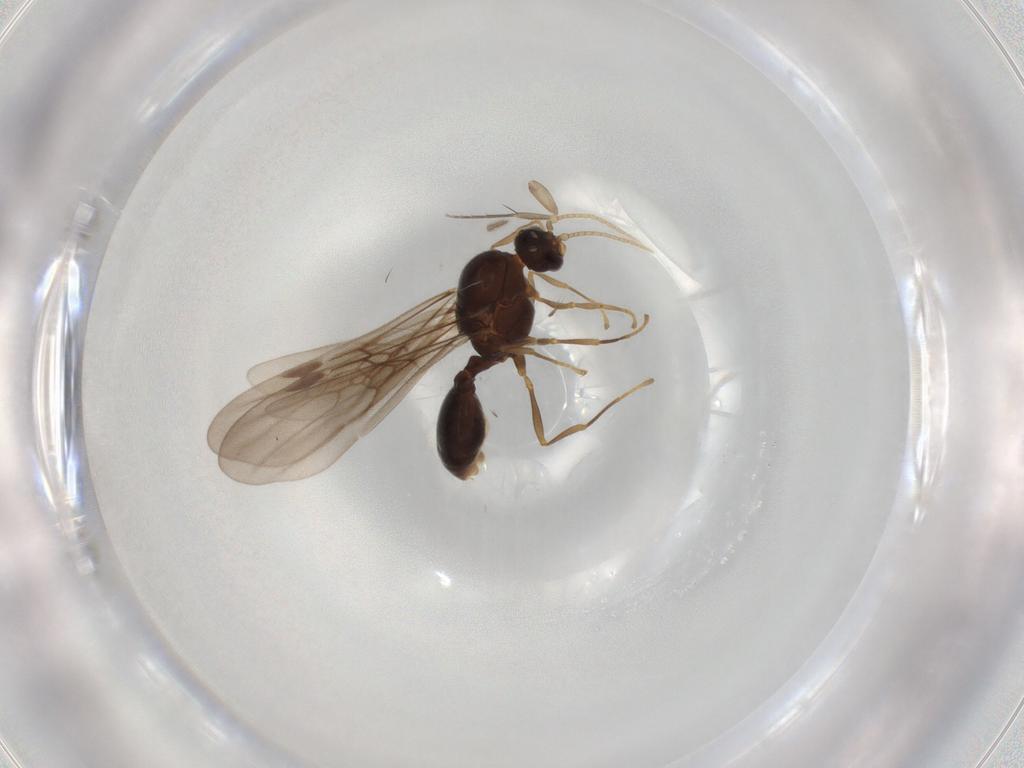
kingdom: Animalia
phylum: Arthropoda
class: Insecta
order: Hymenoptera
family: Formicidae
